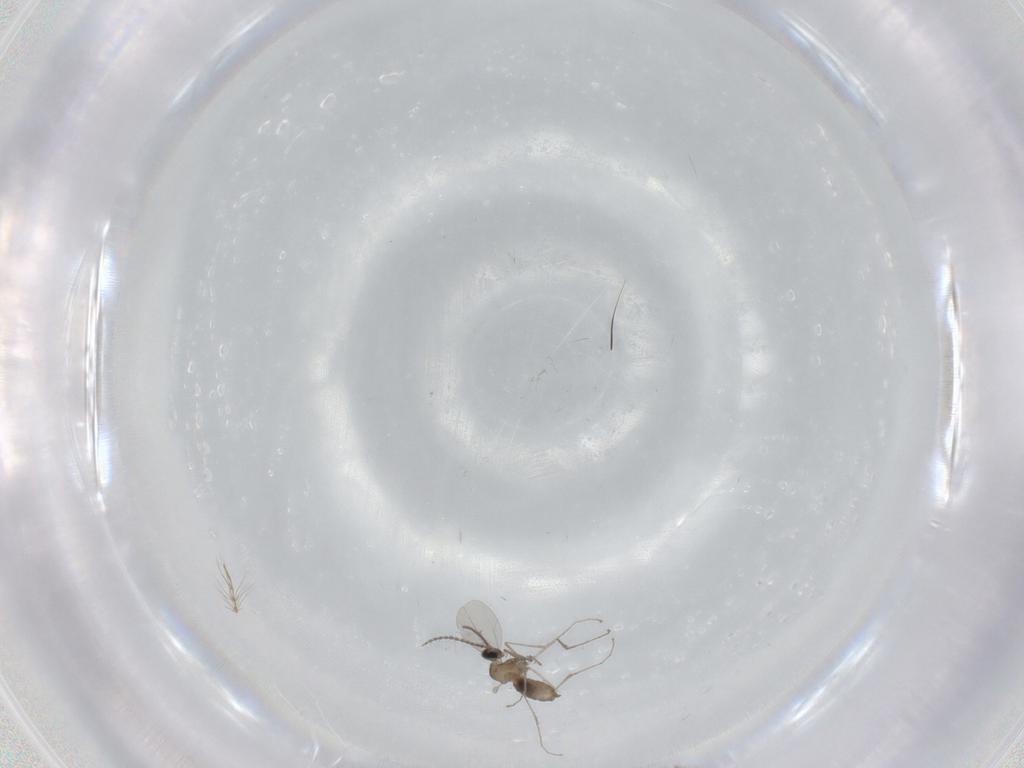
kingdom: Animalia
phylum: Arthropoda
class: Insecta
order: Diptera
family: Cecidomyiidae
